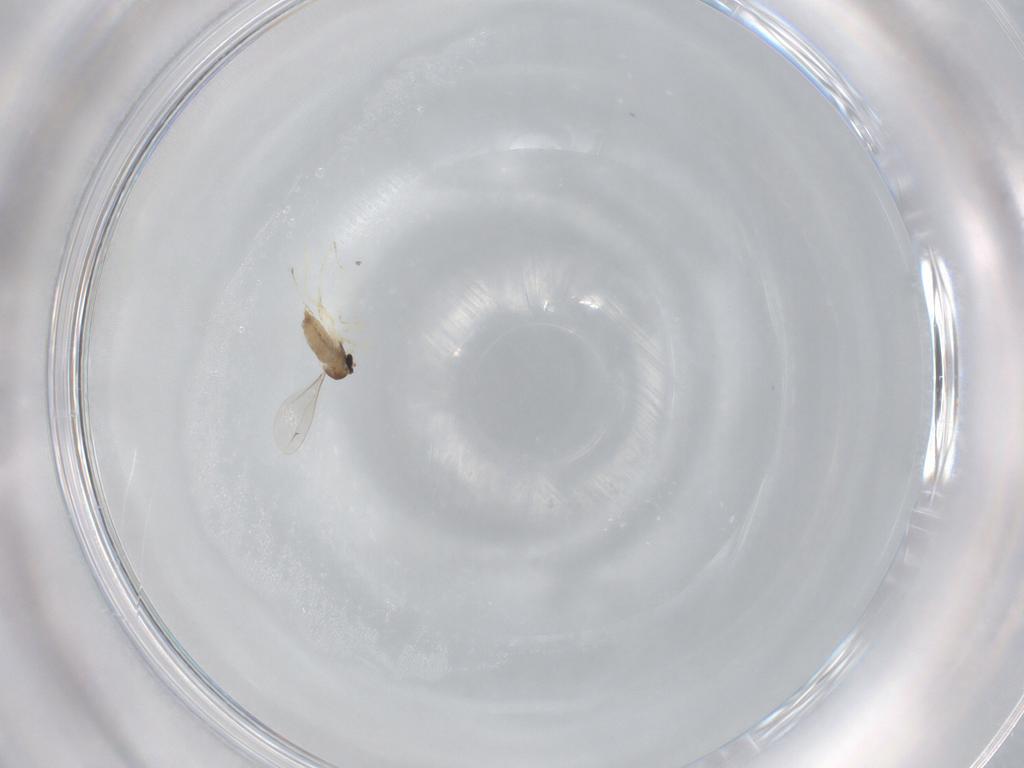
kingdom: Animalia
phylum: Arthropoda
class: Insecta
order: Diptera
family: Cecidomyiidae
